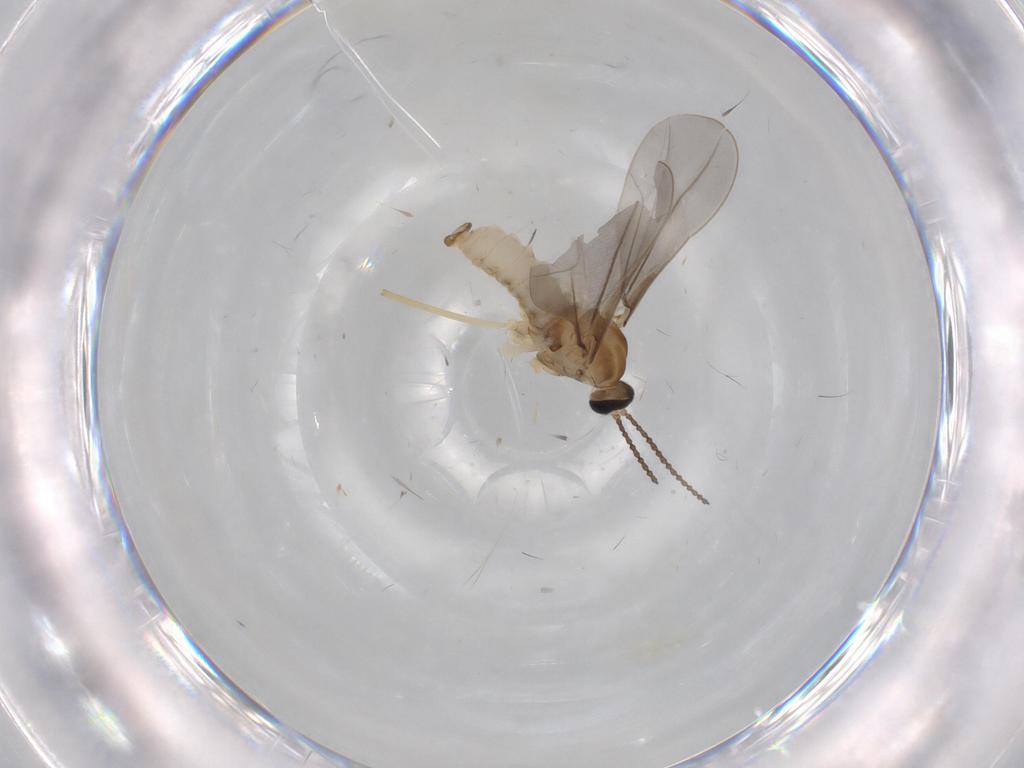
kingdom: Animalia
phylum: Arthropoda
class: Insecta
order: Diptera
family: Cecidomyiidae
